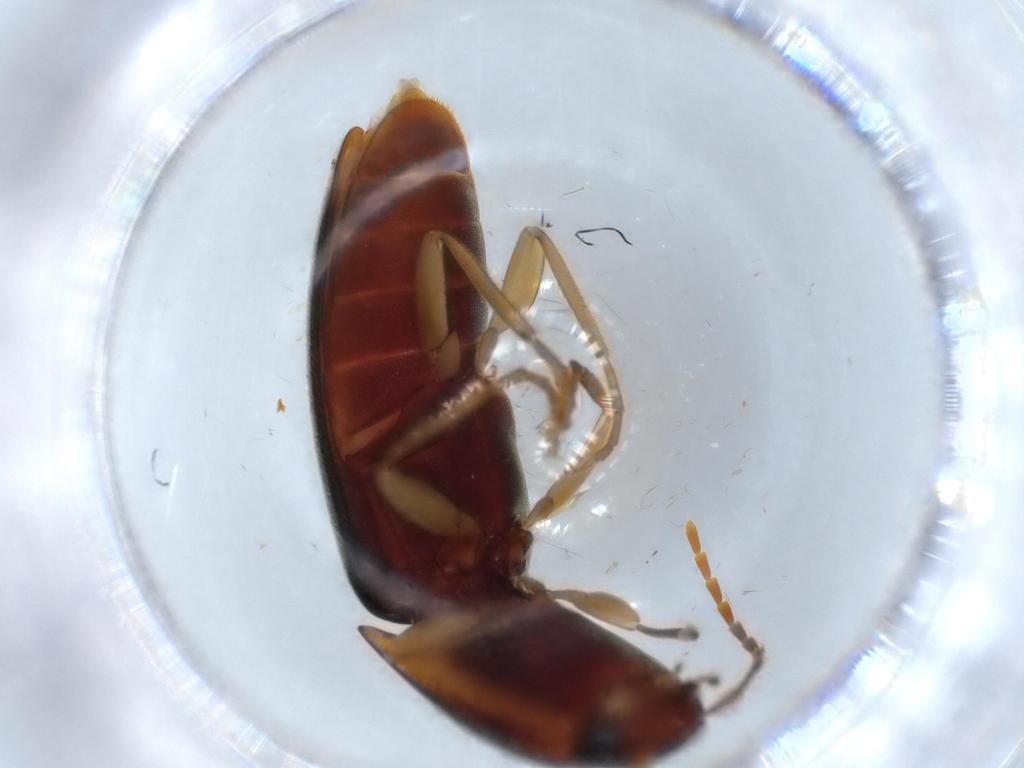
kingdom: Animalia
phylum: Arthropoda
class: Insecta
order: Coleoptera
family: Elateridae
